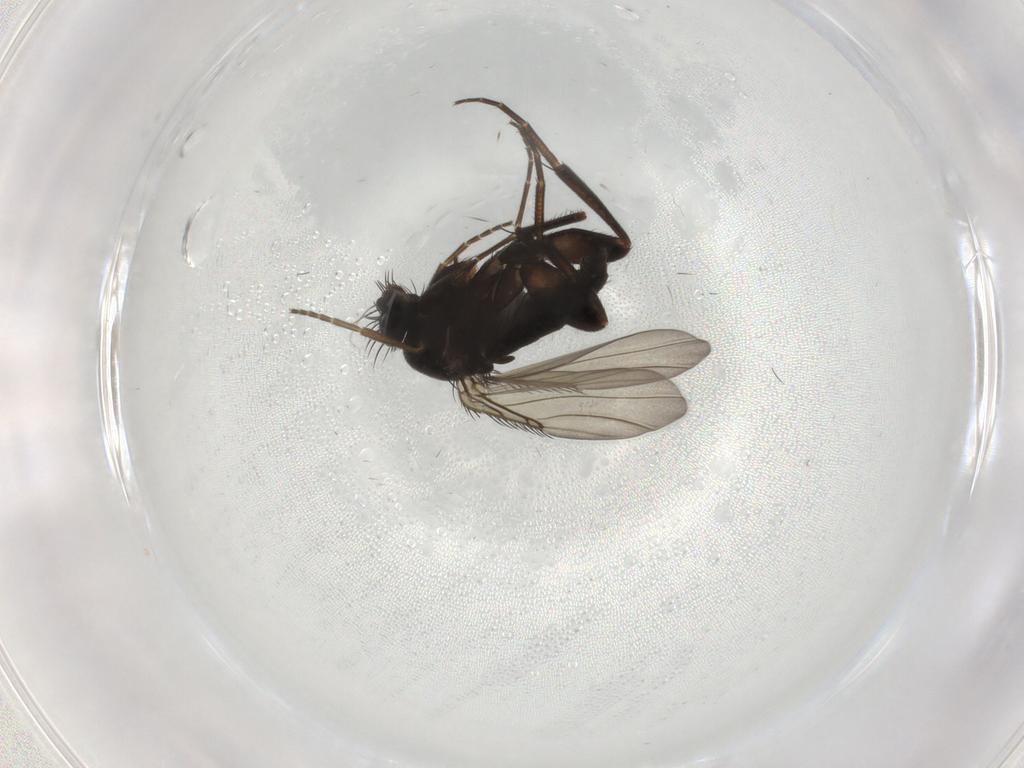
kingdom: Animalia
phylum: Arthropoda
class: Insecta
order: Diptera
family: Phoridae
